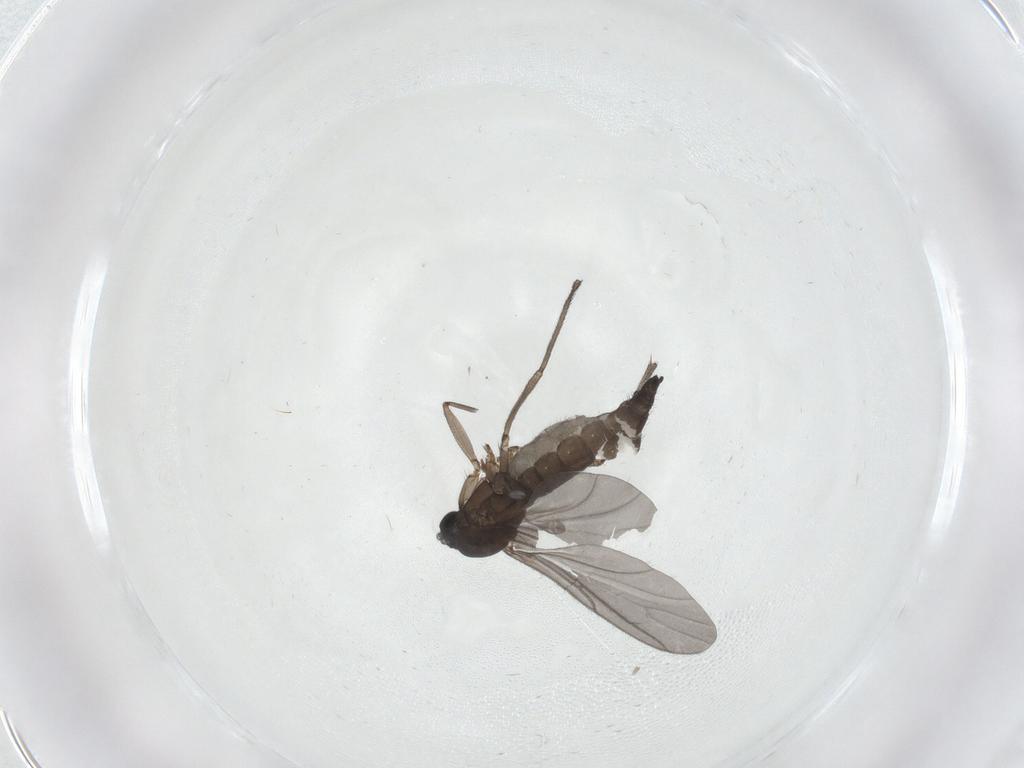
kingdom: Animalia
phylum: Arthropoda
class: Insecta
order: Diptera
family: Sciaridae
